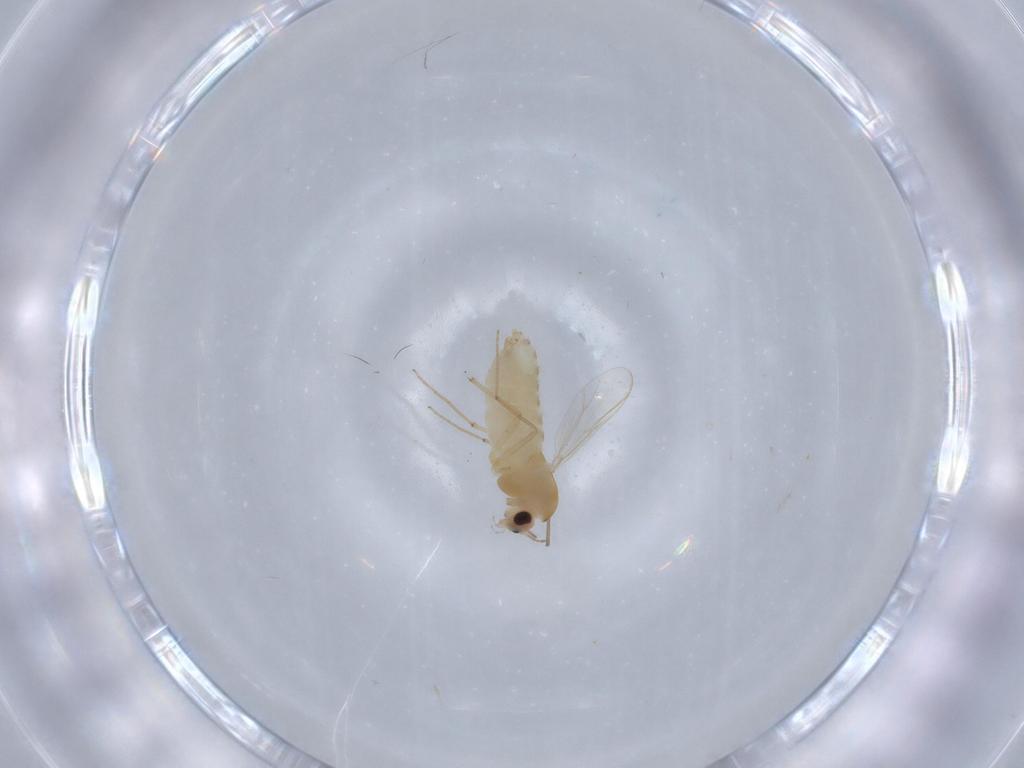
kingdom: Animalia
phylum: Arthropoda
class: Insecta
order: Diptera
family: Chironomidae
